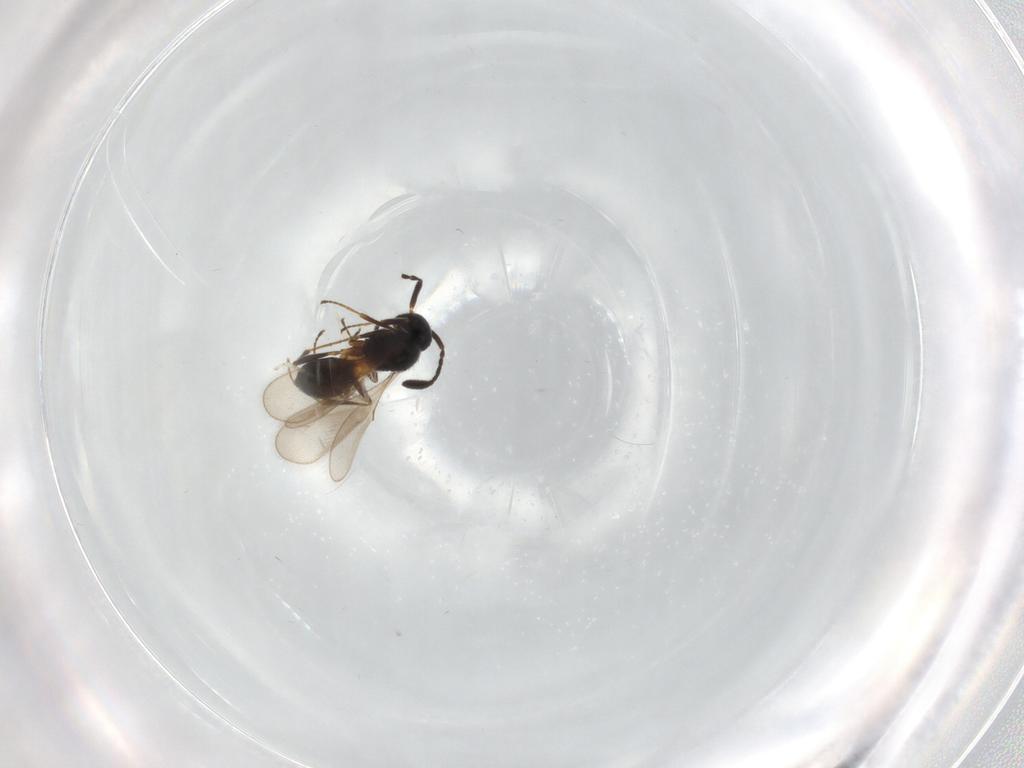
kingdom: Animalia
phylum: Arthropoda
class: Insecta
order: Hymenoptera
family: Scelionidae
